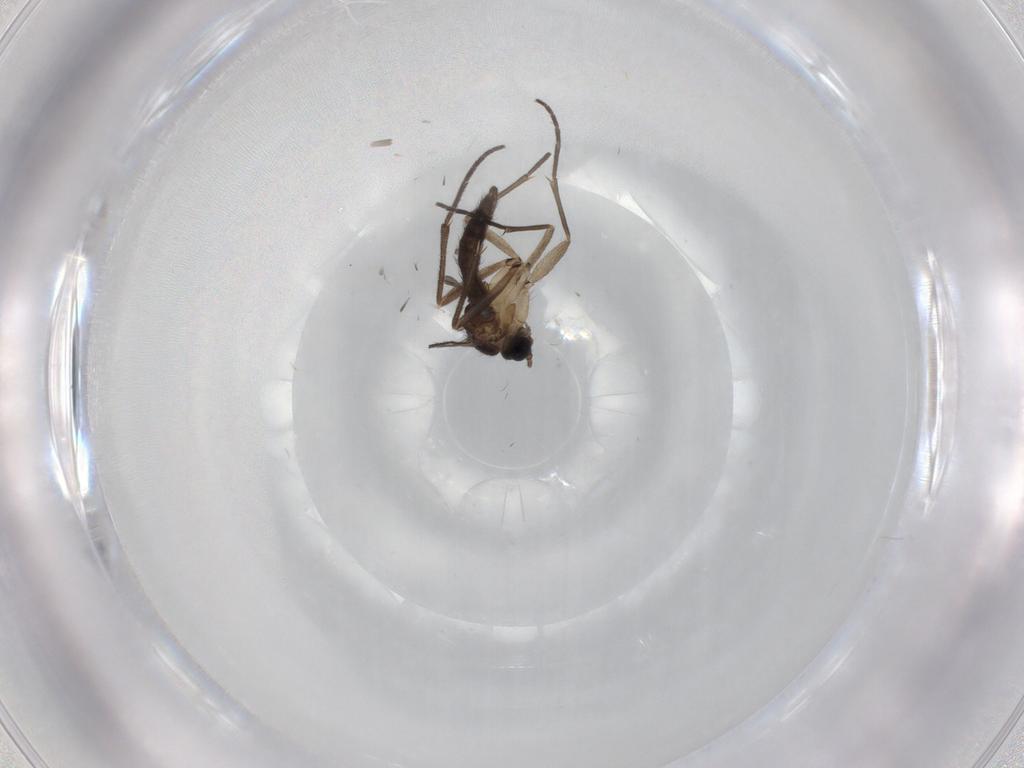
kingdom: Animalia
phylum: Arthropoda
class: Insecta
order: Diptera
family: Sciaridae
